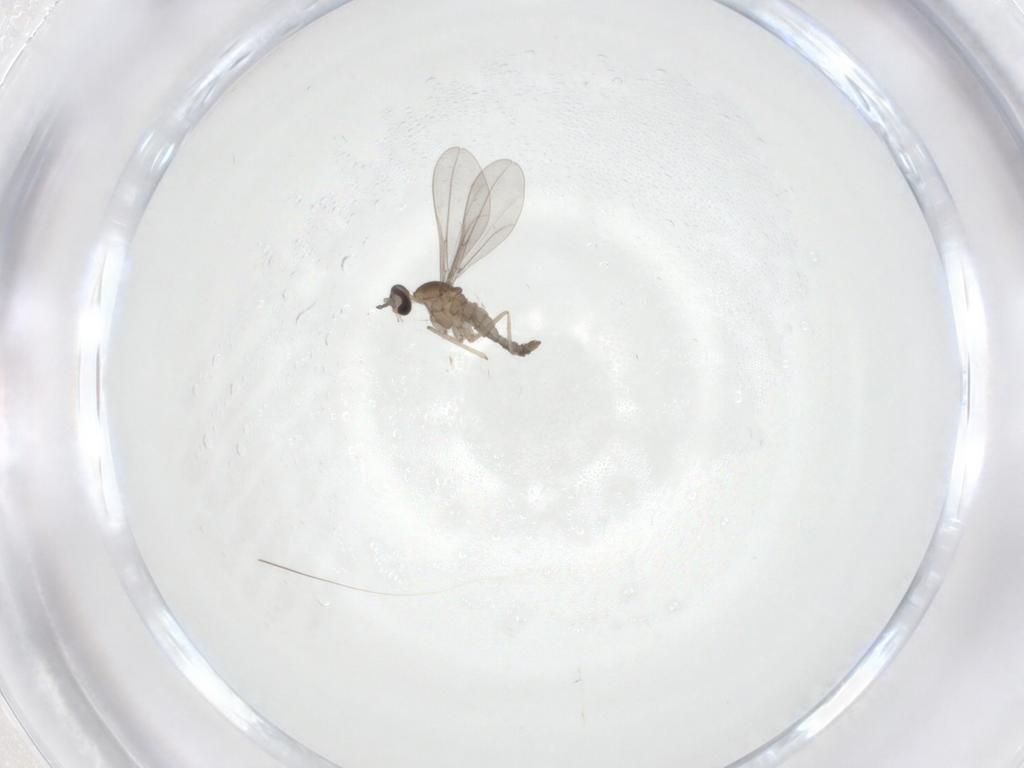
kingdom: Animalia
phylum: Arthropoda
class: Insecta
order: Diptera
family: Cecidomyiidae
